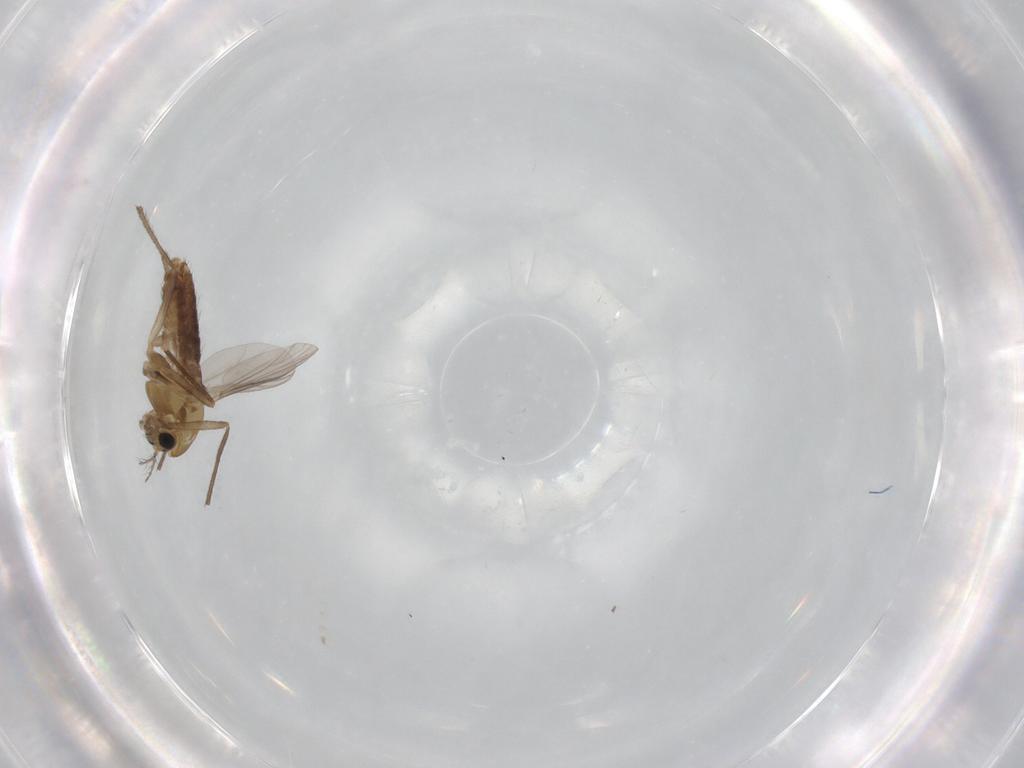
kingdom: Animalia
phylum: Arthropoda
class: Insecta
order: Diptera
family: Chironomidae
